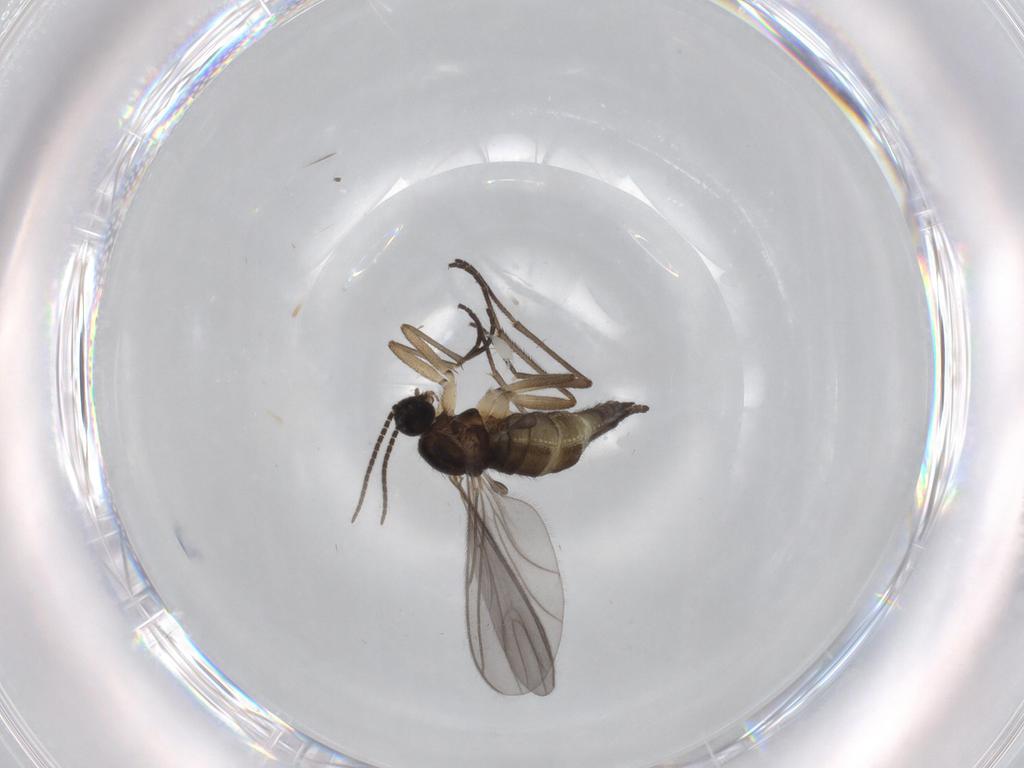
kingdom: Animalia
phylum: Arthropoda
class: Insecta
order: Diptera
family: Sciaridae
